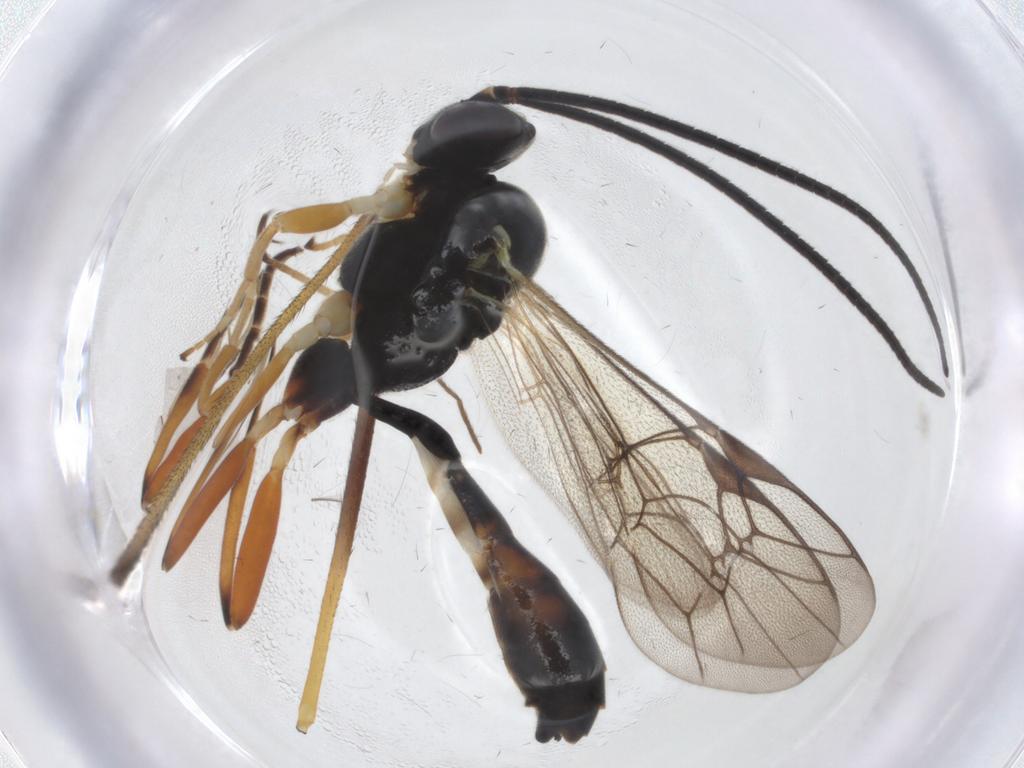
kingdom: Animalia
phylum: Arthropoda
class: Insecta
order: Hymenoptera
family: Ichneumonidae
